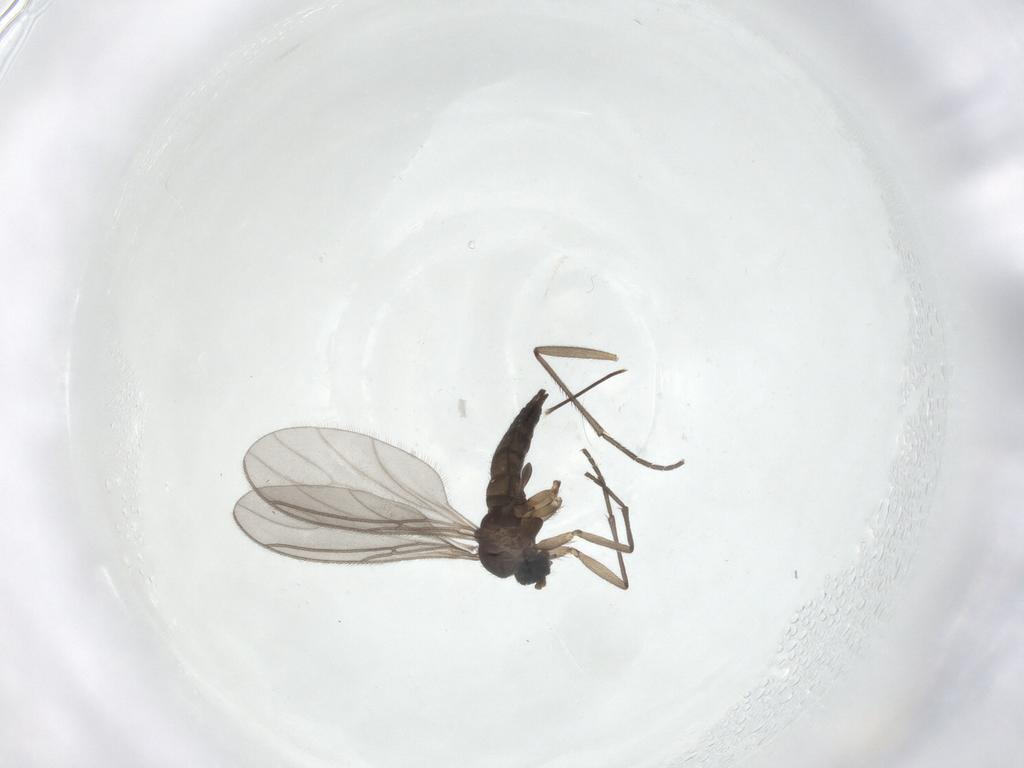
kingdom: Animalia
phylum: Arthropoda
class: Insecta
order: Diptera
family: Sciaridae
